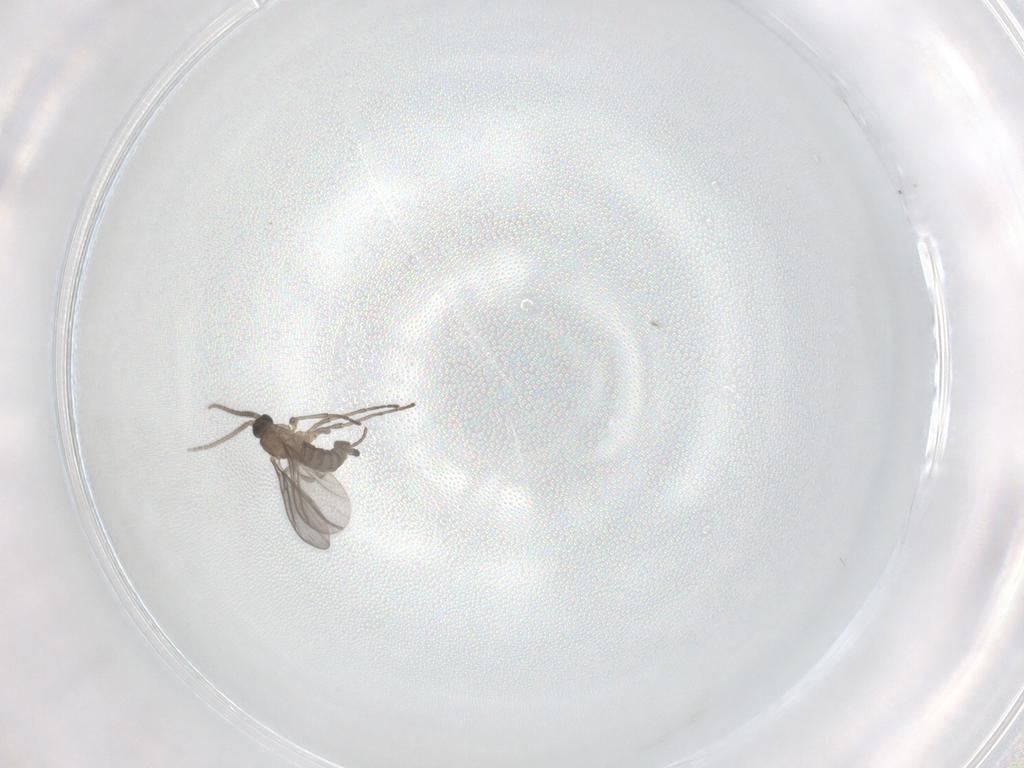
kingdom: Animalia
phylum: Arthropoda
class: Insecta
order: Diptera
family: Sciaridae
